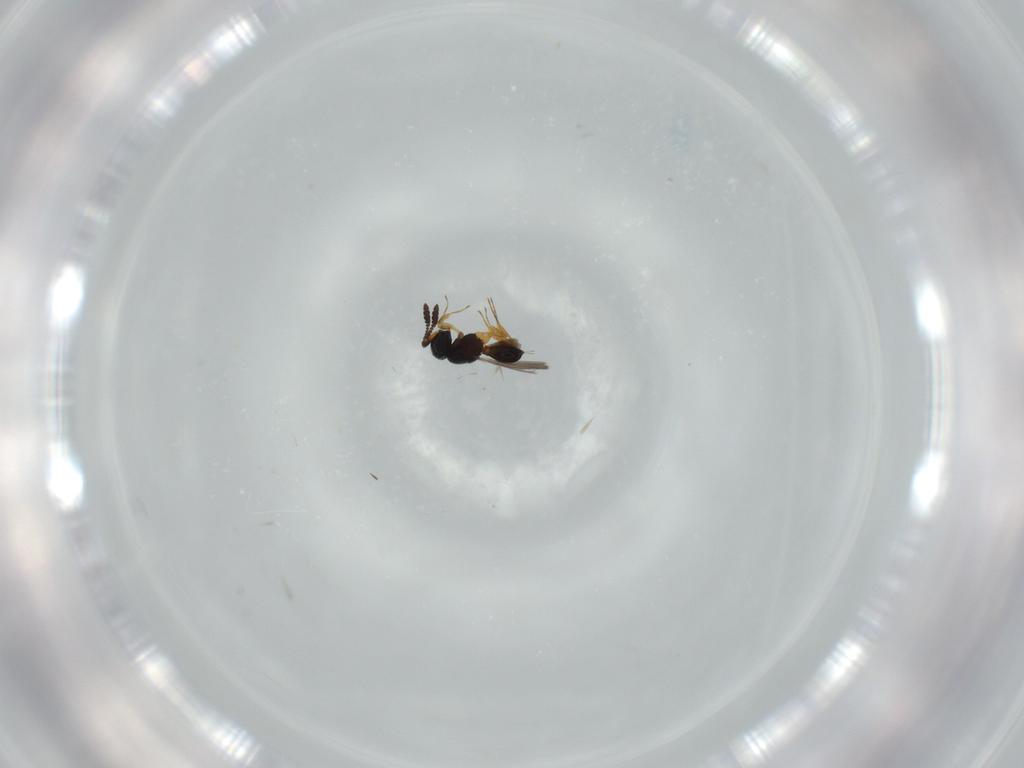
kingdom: Animalia
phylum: Arthropoda
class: Insecta
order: Hymenoptera
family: Scelionidae
